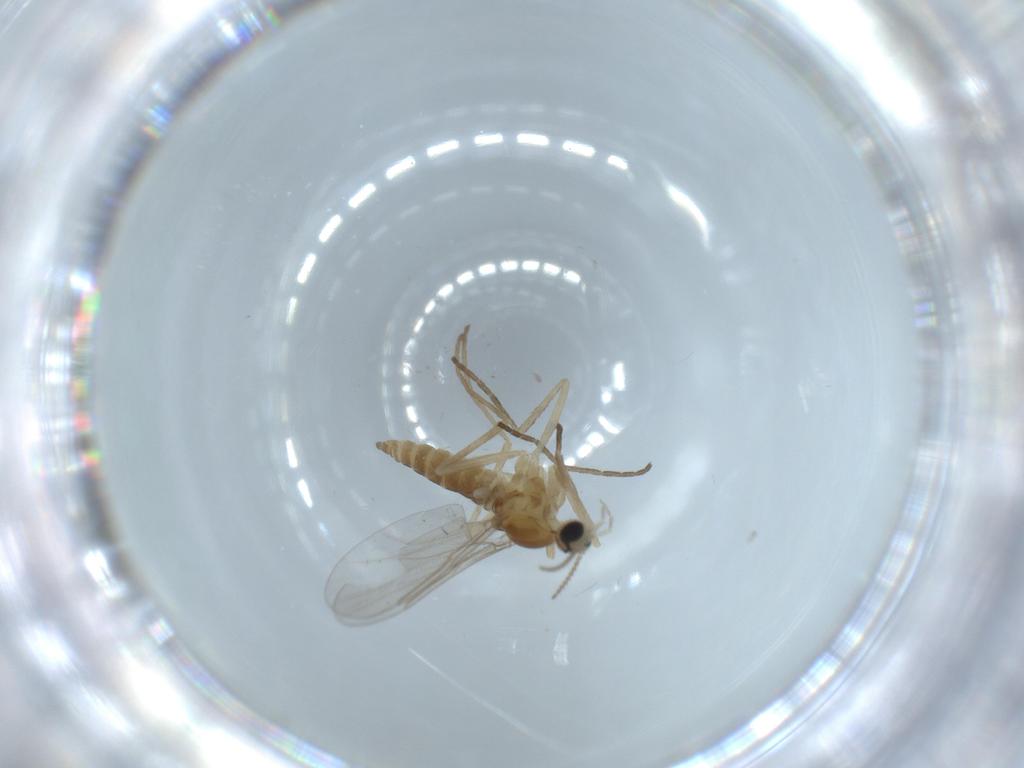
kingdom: Animalia
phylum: Arthropoda
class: Insecta
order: Diptera
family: Cecidomyiidae
